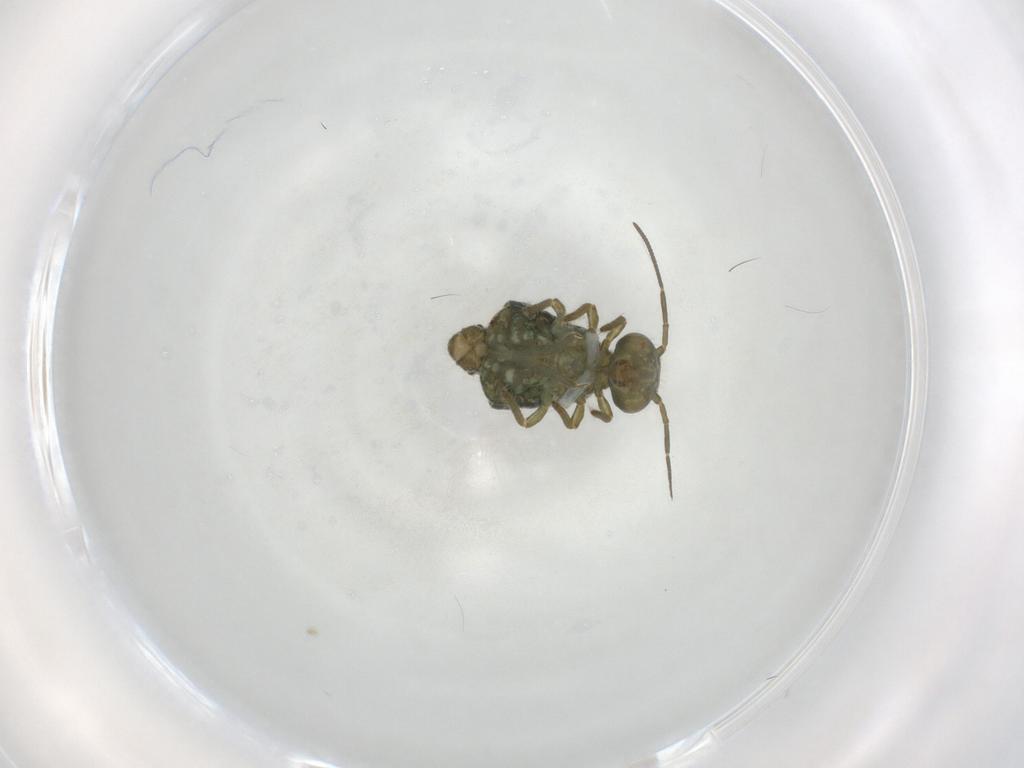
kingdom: Animalia
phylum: Arthropoda
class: Collembola
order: Symphypleona
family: Sminthuridae
